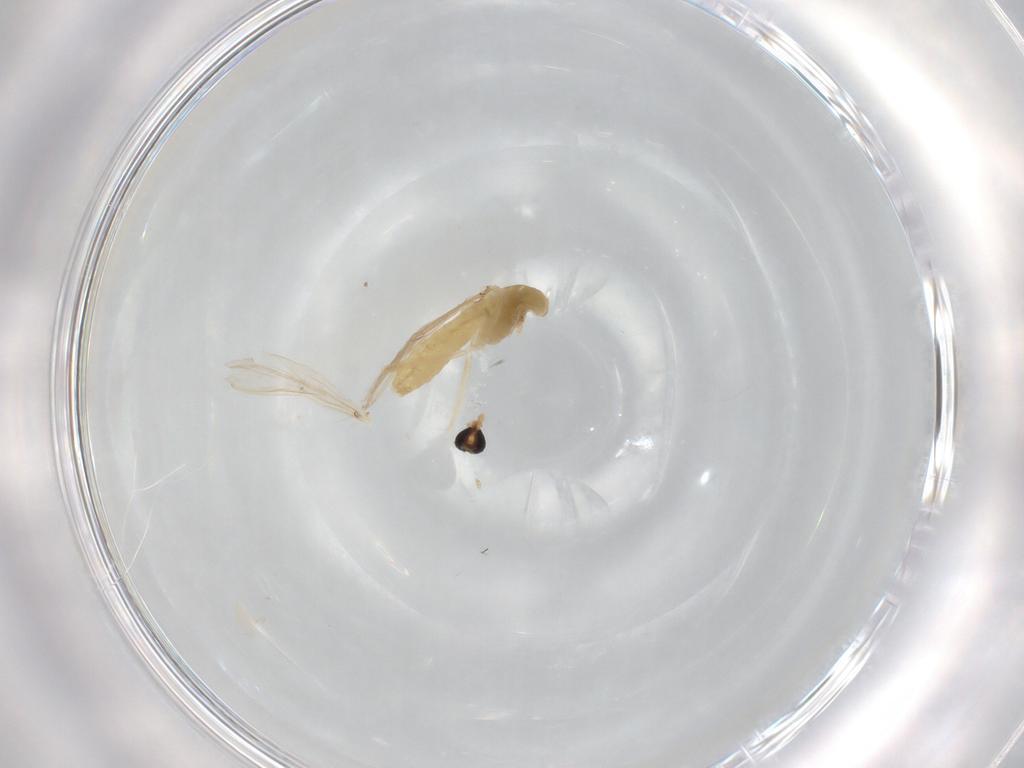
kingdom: Animalia
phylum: Arthropoda
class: Insecta
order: Diptera
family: Chironomidae
